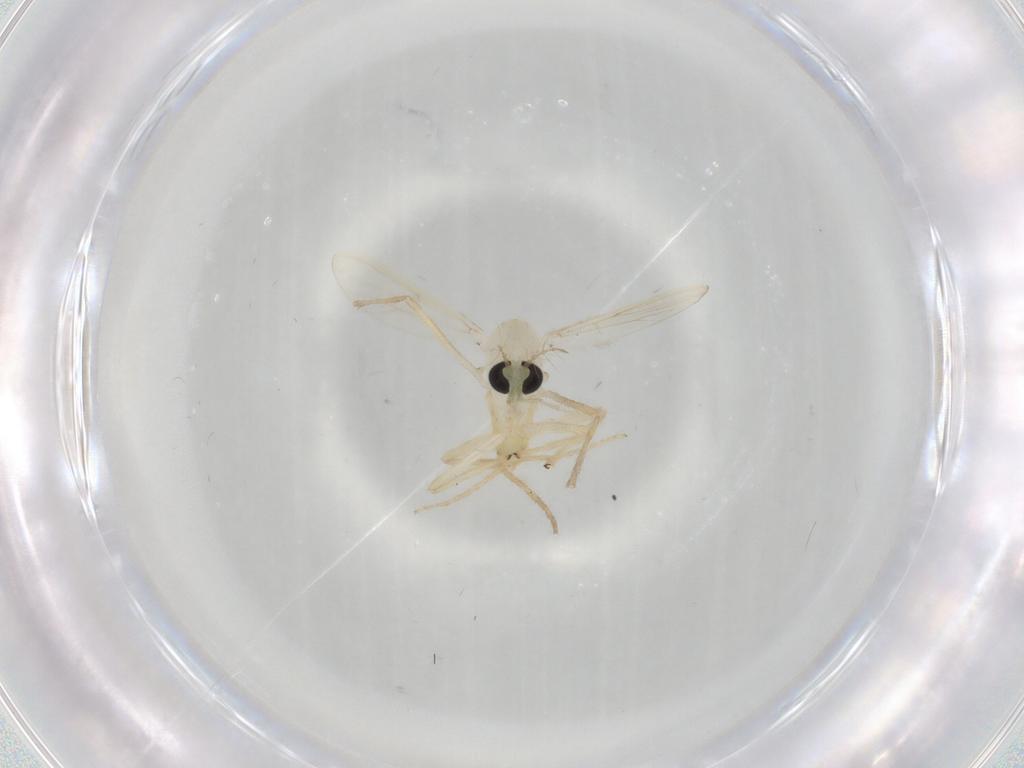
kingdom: Animalia
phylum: Arthropoda
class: Insecta
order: Diptera
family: Chironomidae
